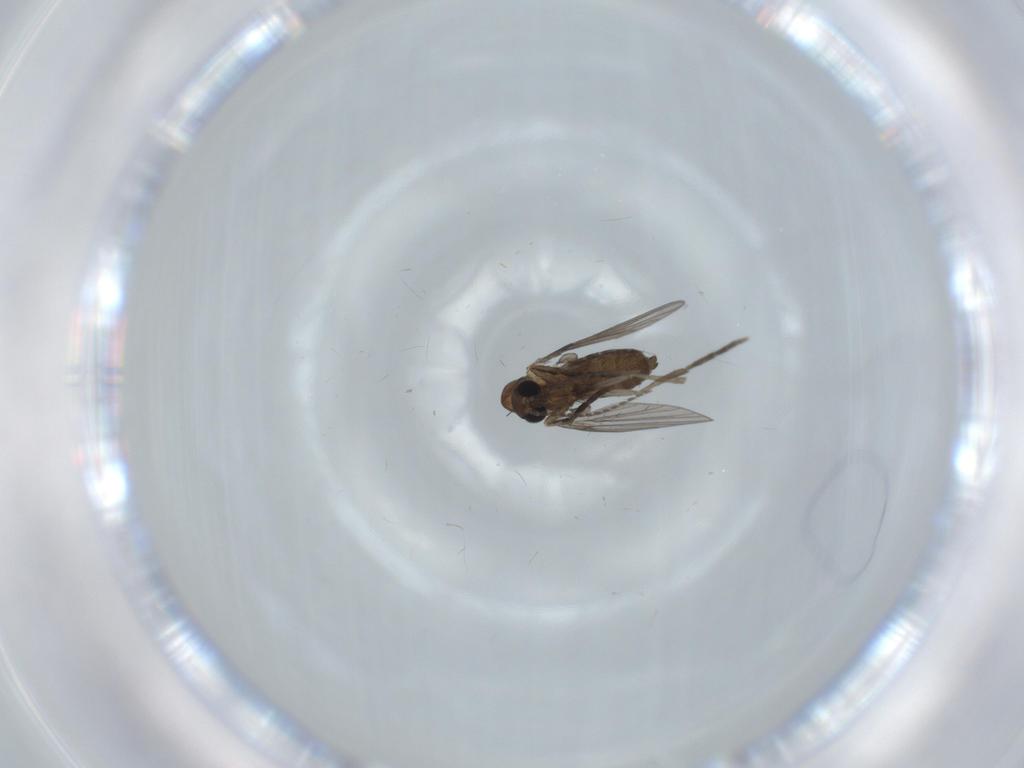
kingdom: Animalia
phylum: Arthropoda
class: Insecta
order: Diptera
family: Psychodidae
